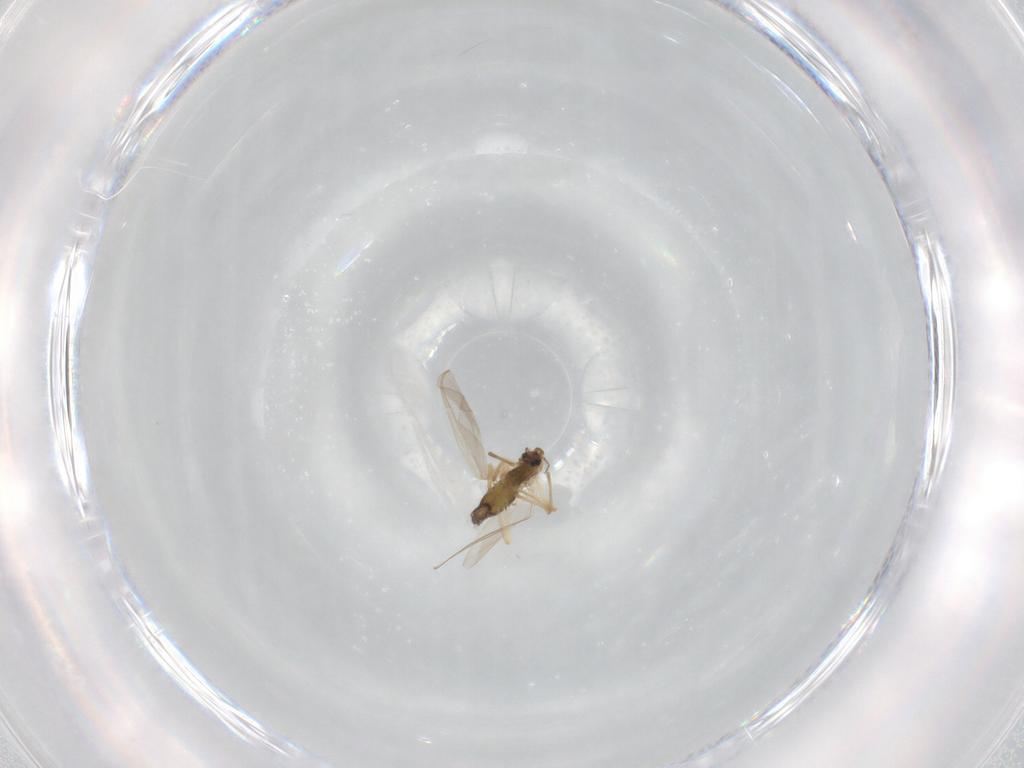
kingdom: Animalia
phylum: Arthropoda
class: Insecta
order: Diptera
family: Chironomidae
